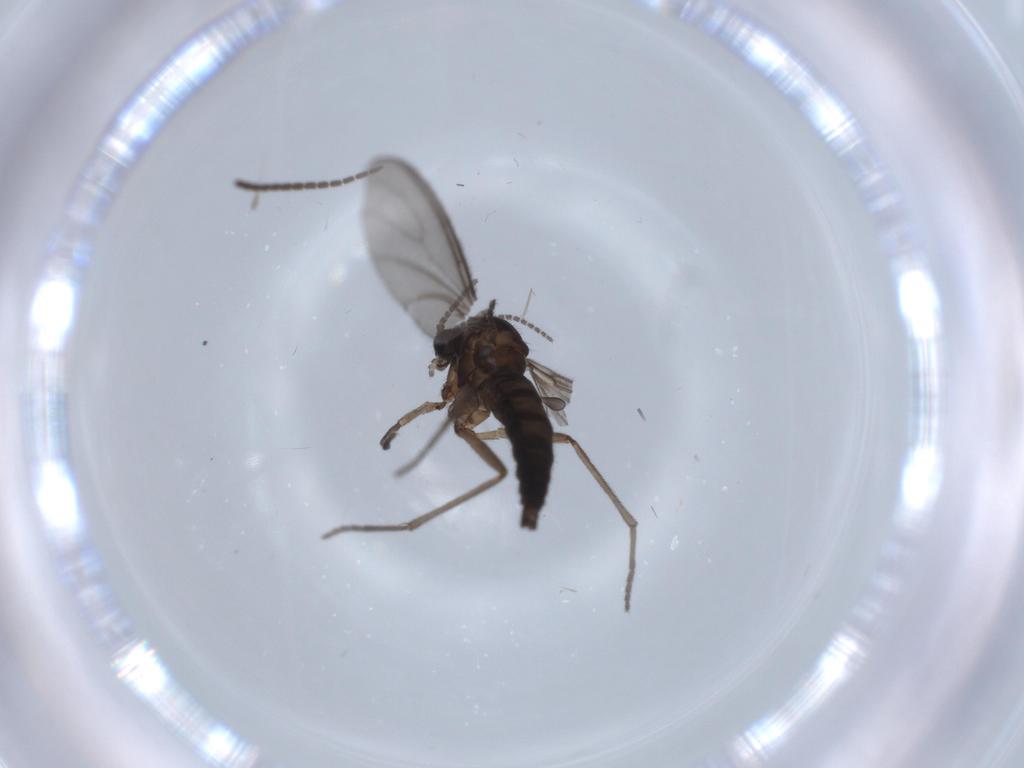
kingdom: Animalia
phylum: Arthropoda
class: Insecta
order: Diptera
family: Sciaridae
